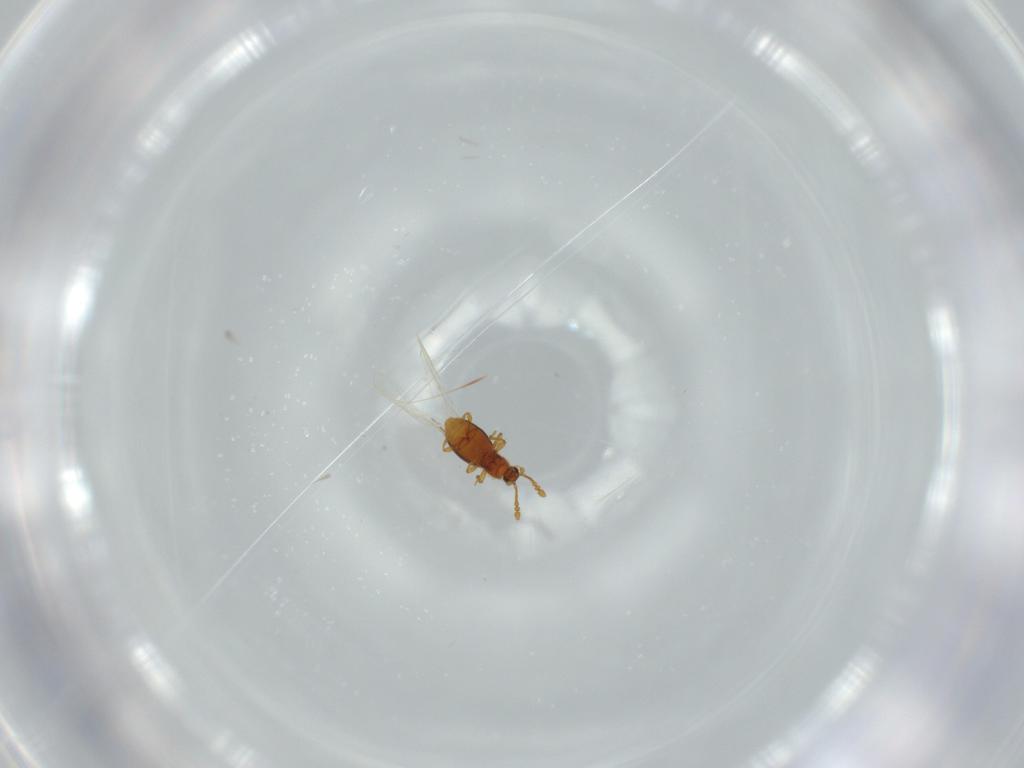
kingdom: Animalia
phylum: Arthropoda
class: Insecta
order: Coleoptera
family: Staphylinidae
